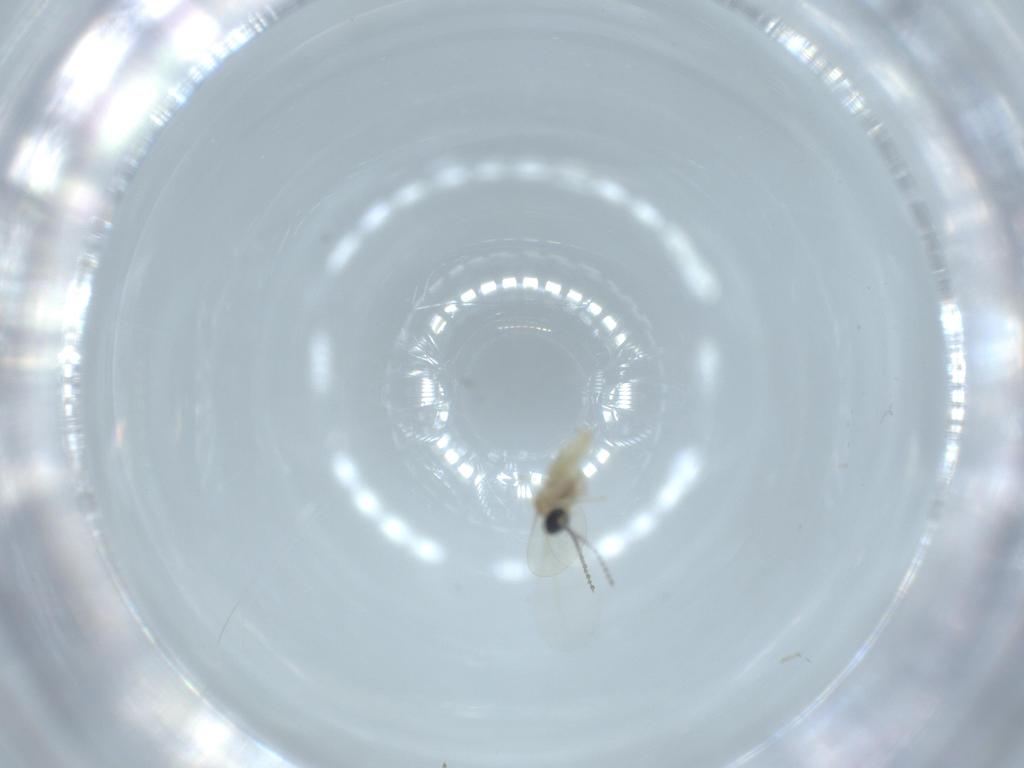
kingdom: Animalia
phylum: Arthropoda
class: Insecta
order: Diptera
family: Cecidomyiidae
